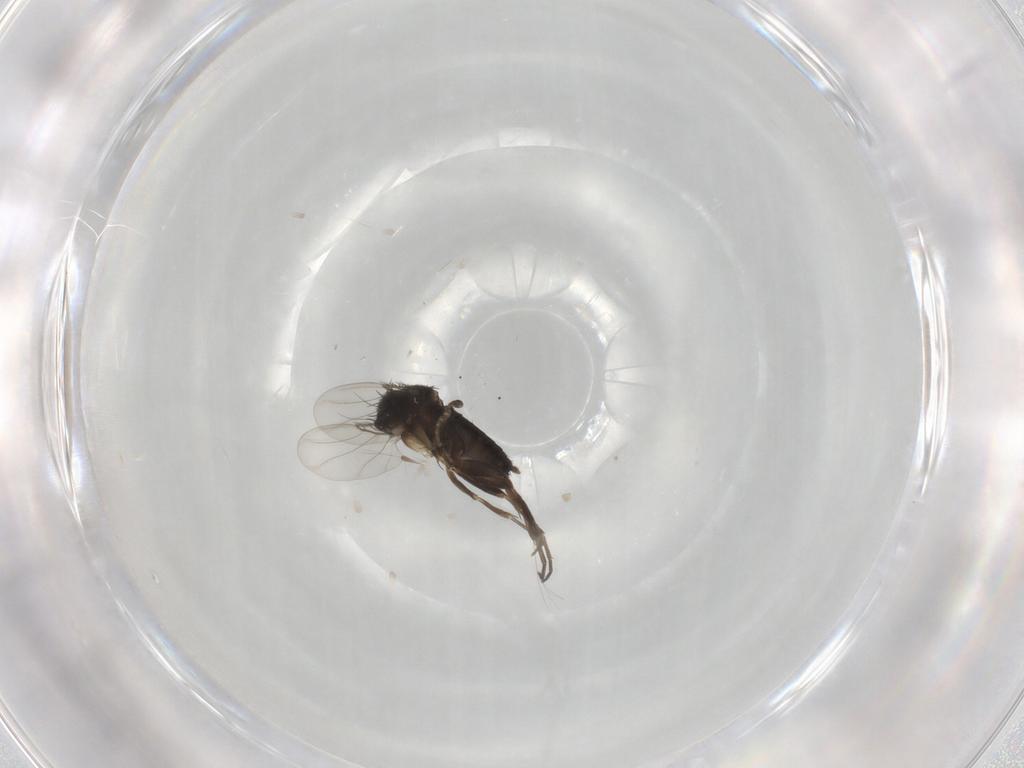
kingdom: Animalia
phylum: Arthropoda
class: Insecta
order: Diptera
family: Phoridae
